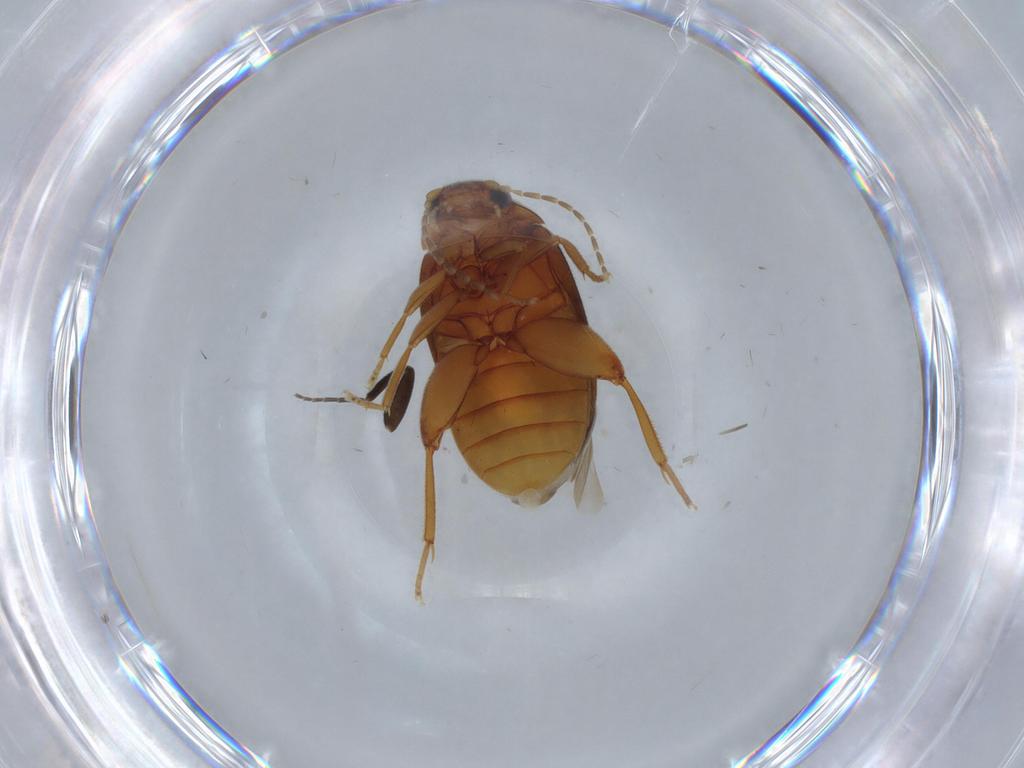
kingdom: Animalia
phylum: Arthropoda
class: Insecta
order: Coleoptera
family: Scirtidae
